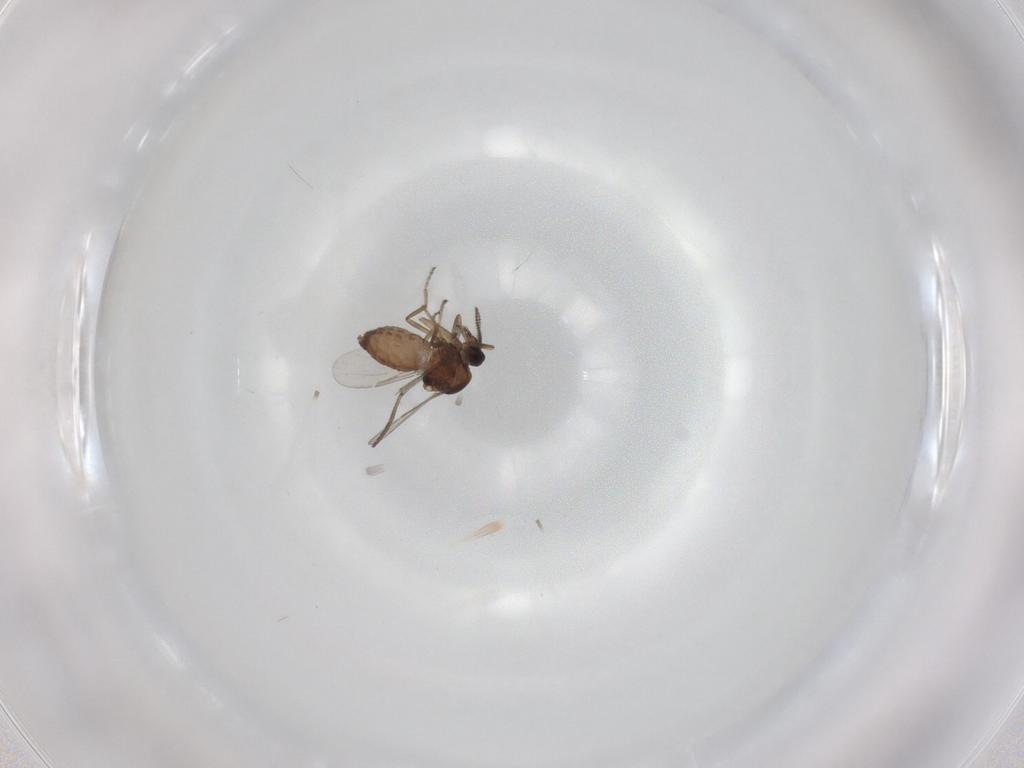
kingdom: Animalia
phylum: Arthropoda
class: Insecta
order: Diptera
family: Ceratopogonidae
